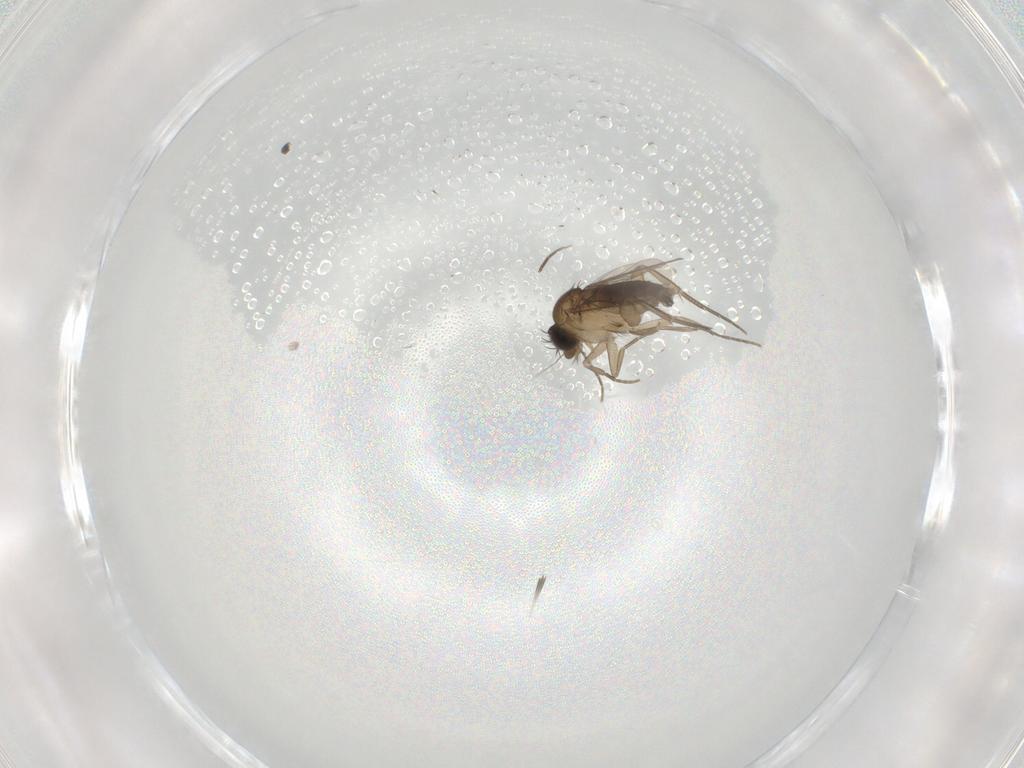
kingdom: Animalia
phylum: Arthropoda
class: Insecta
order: Diptera
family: Phoridae
